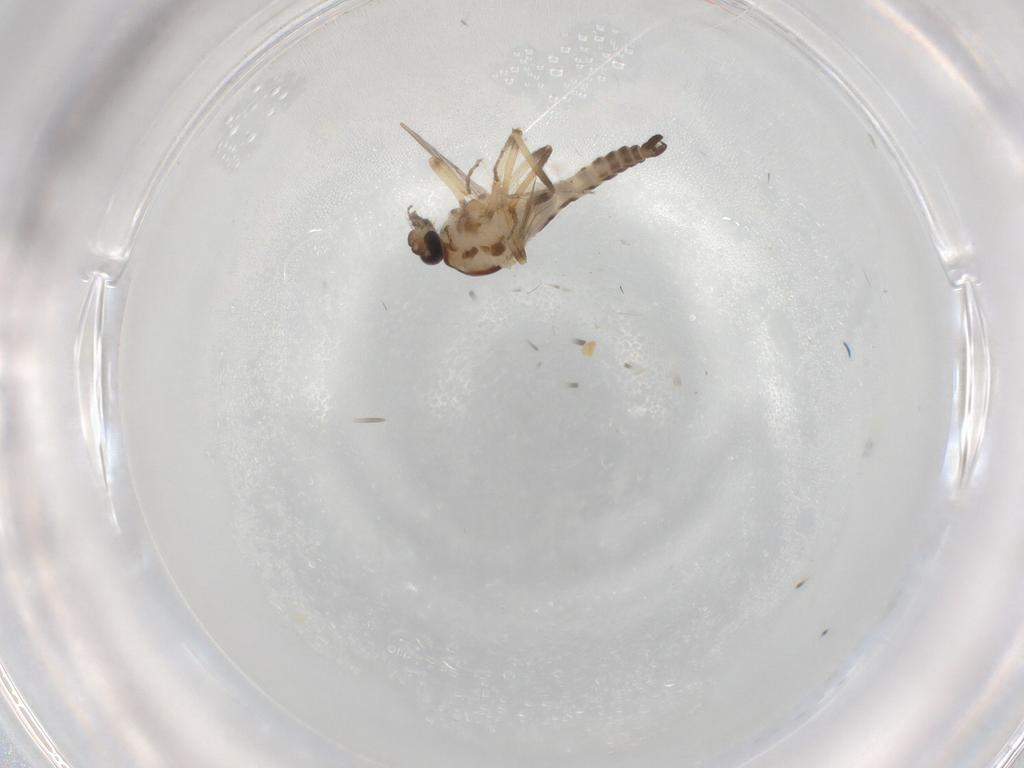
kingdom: Animalia
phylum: Arthropoda
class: Insecta
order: Diptera
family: Ceratopogonidae
